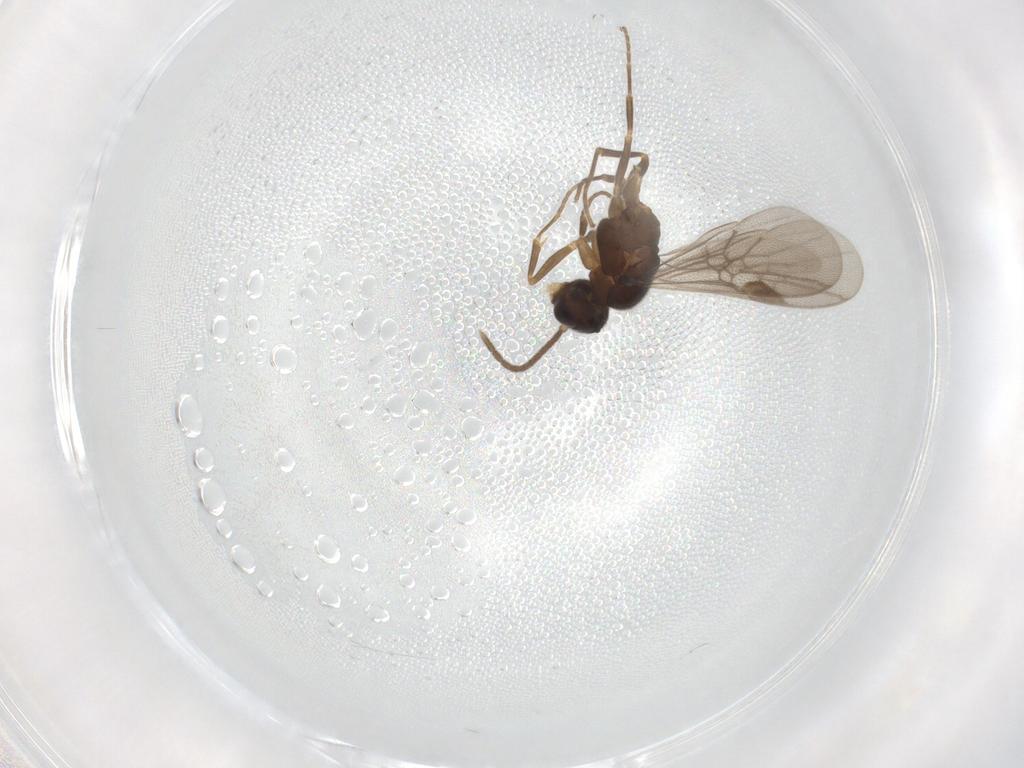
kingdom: Animalia
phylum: Arthropoda
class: Insecta
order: Hymenoptera
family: Formicidae
